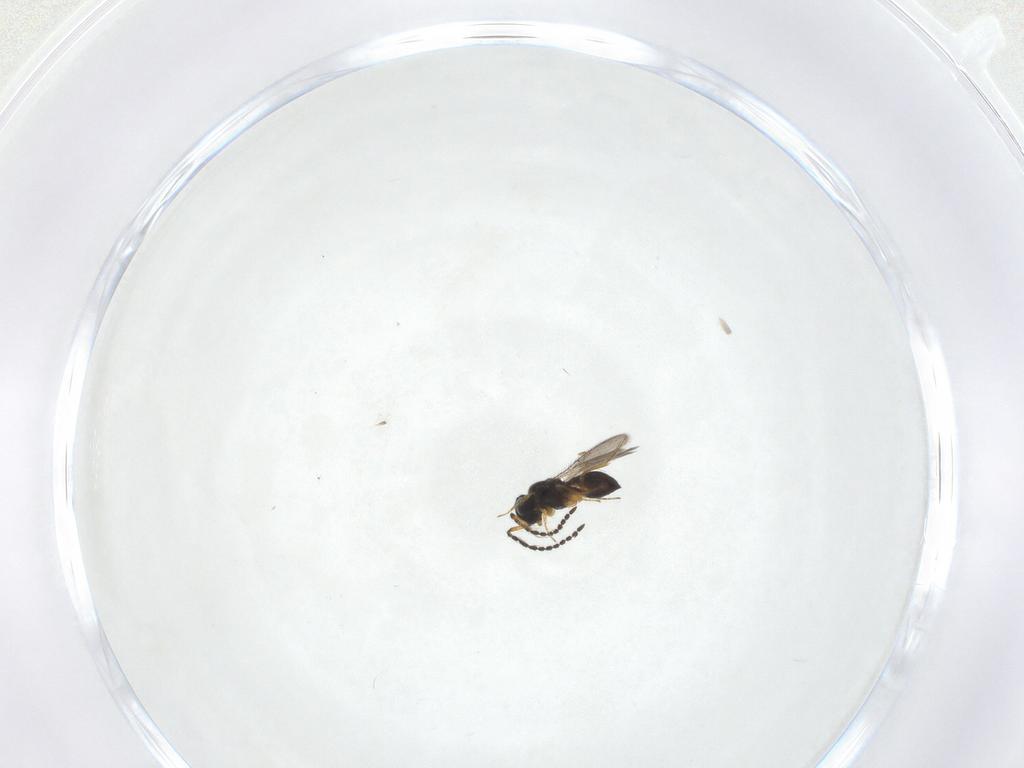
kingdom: Animalia
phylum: Arthropoda
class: Insecta
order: Hymenoptera
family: Scelionidae
